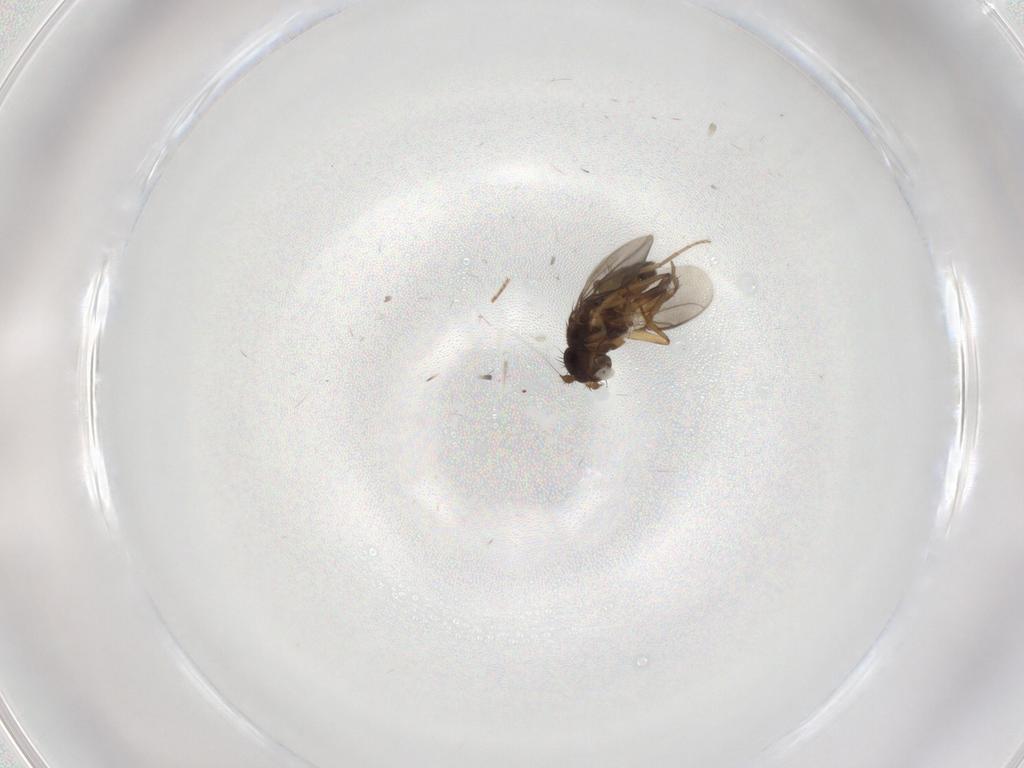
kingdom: Animalia
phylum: Arthropoda
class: Insecta
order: Diptera
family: Sphaeroceridae
